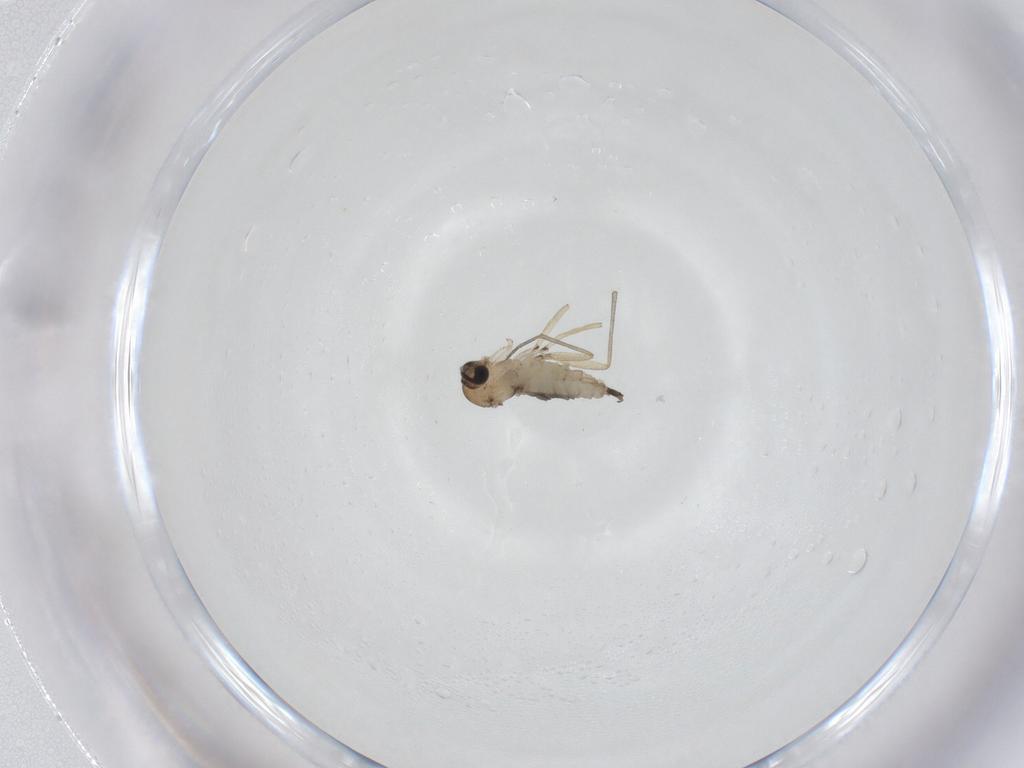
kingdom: Animalia
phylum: Arthropoda
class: Insecta
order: Diptera
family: Sciaridae
